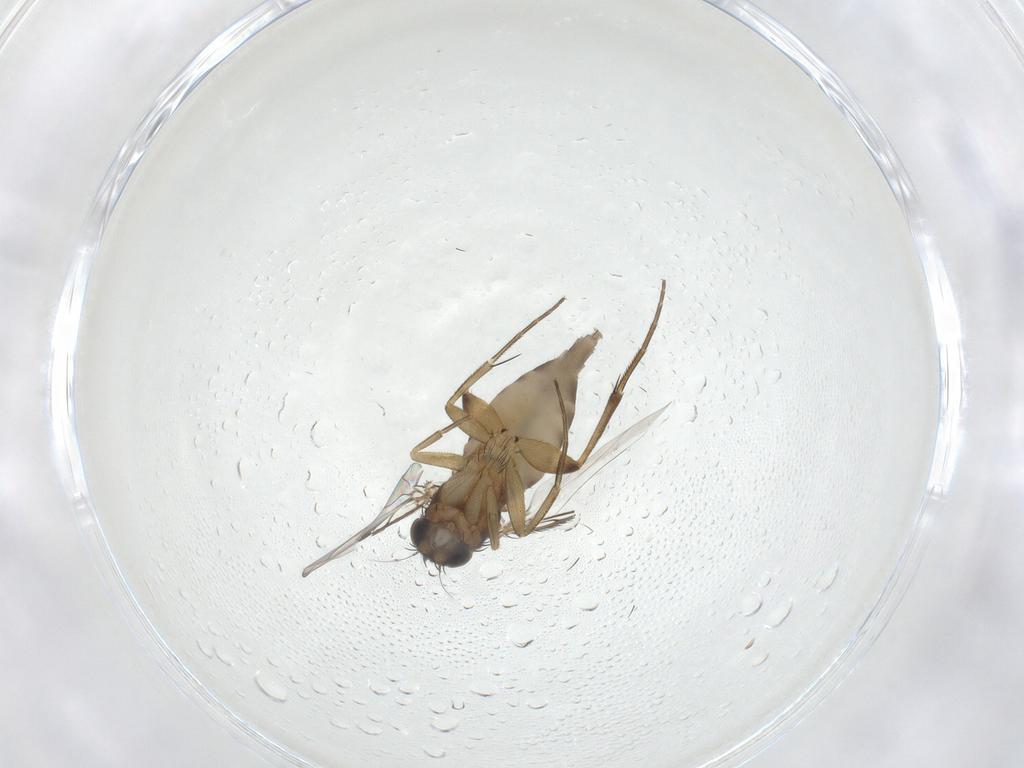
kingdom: Animalia
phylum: Arthropoda
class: Insecta
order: Diptera
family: Phoridae
